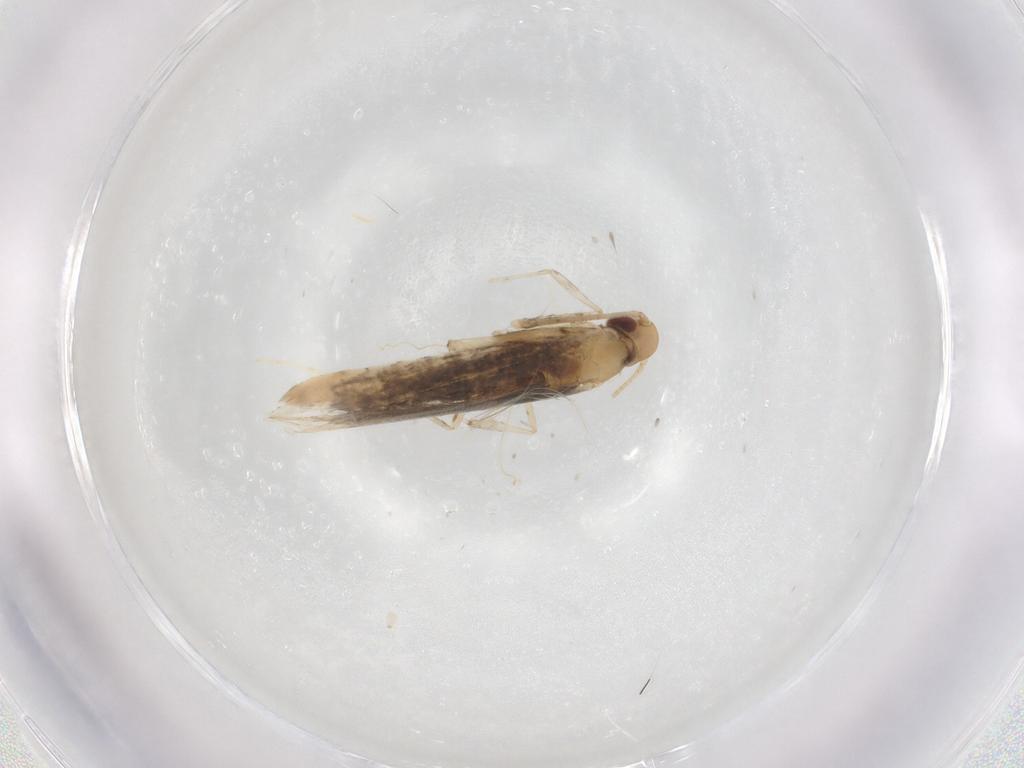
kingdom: Animalia
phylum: Arthropoda
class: Insecta
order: Lepidoptera
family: Gracillariidae
